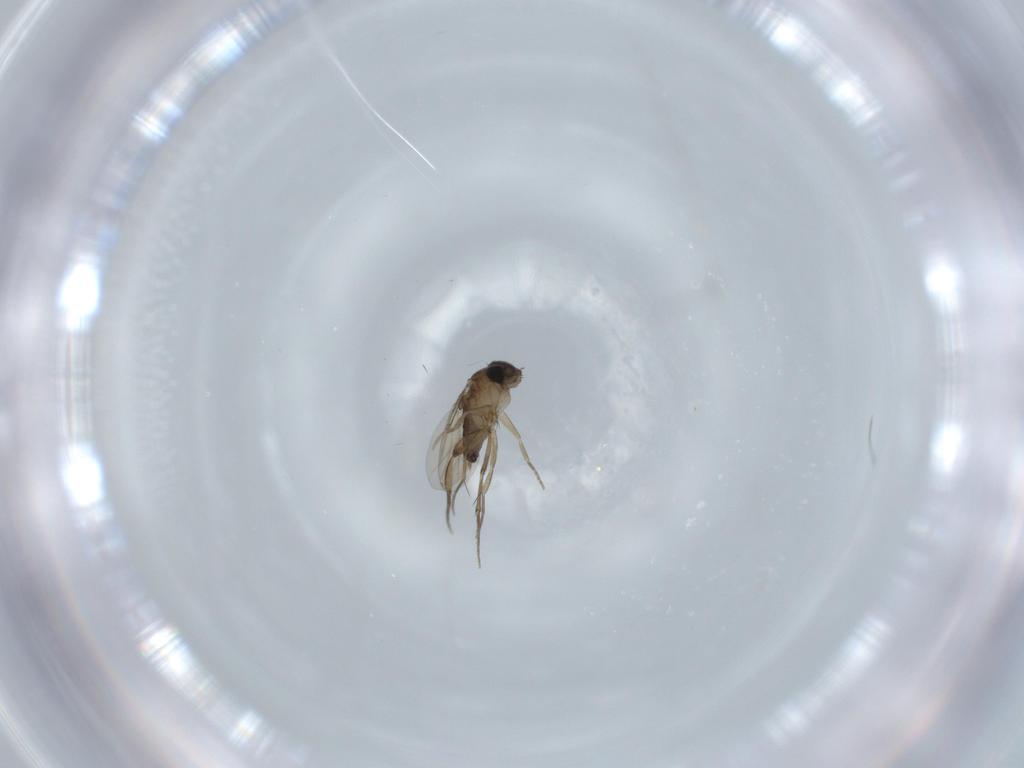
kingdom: Animalia
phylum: Arthropoda
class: Insecta
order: Diptera
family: Phoridae
